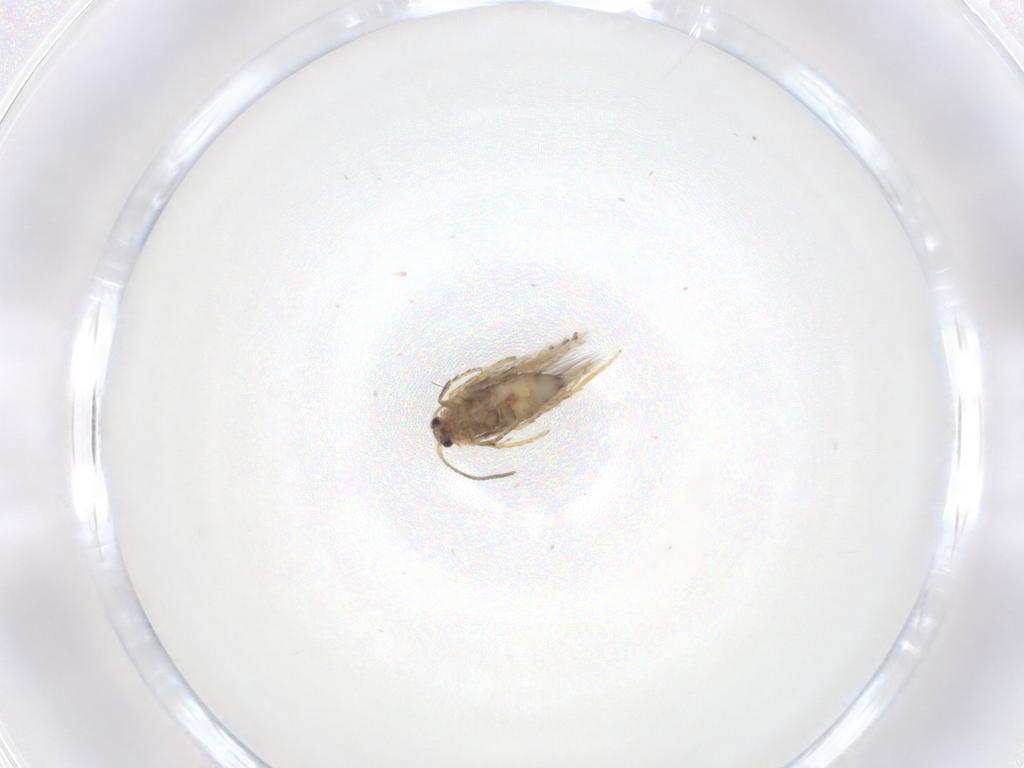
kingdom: Animalia
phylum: Arthropoda
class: Insecta
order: Lepidoptera
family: Nepticulidae
